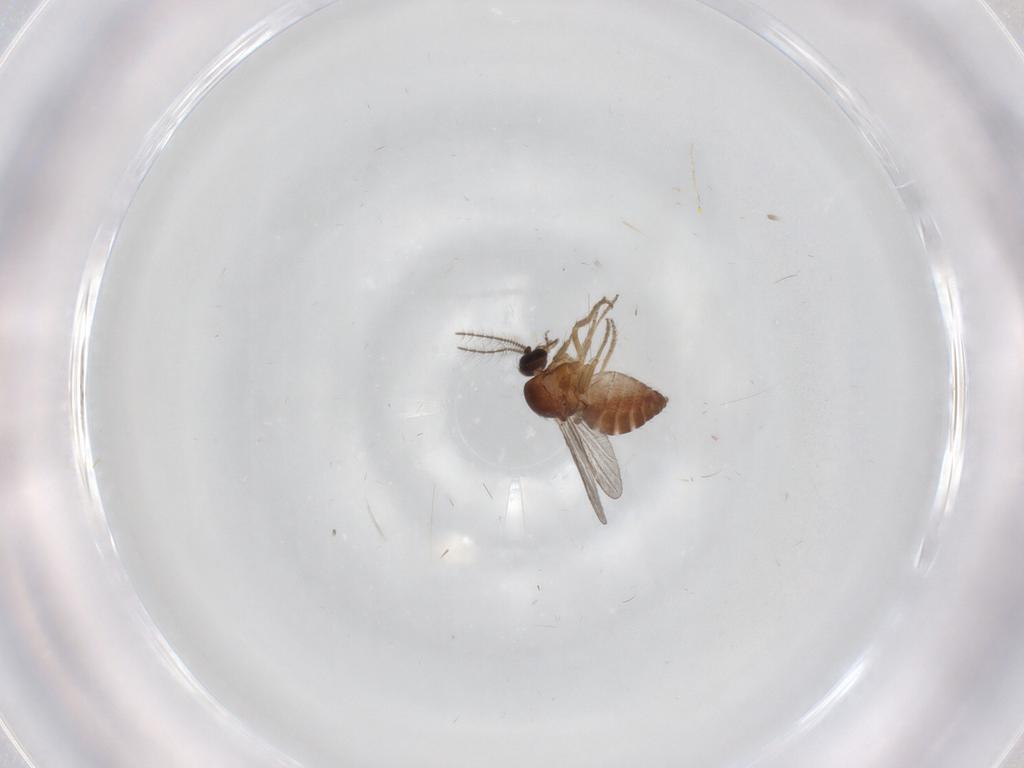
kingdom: Animalia
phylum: Arthropoda
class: Insecta
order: Diptera
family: Ceratopogonidae
